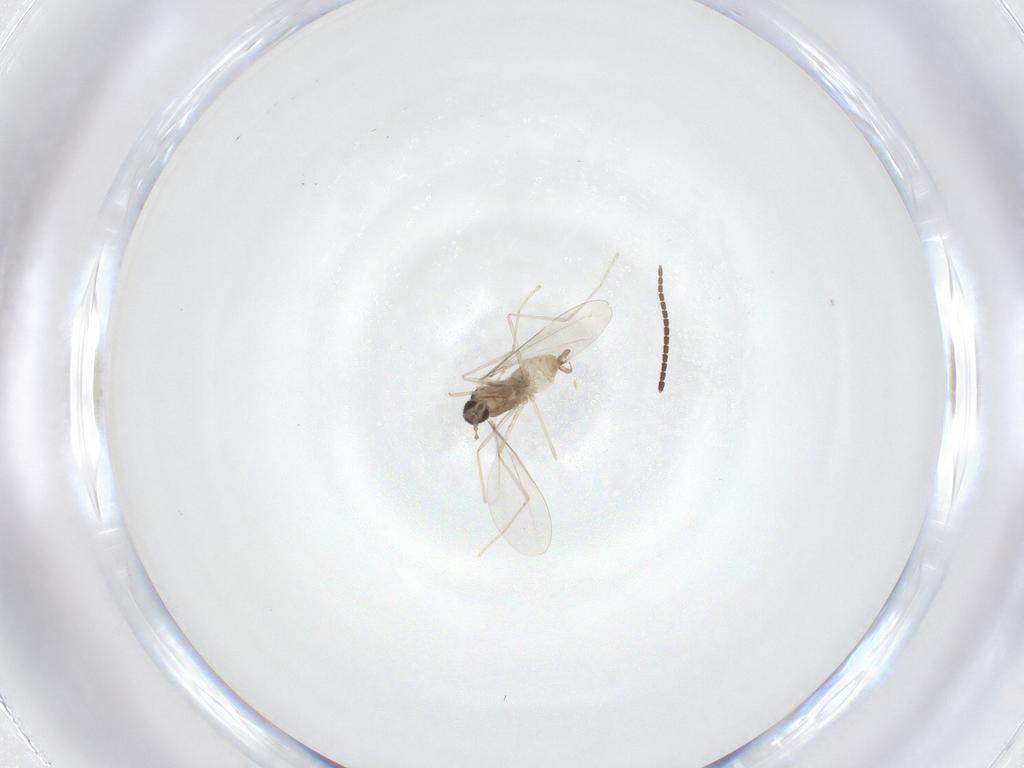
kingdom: Animalia
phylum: Arthropoda
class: Insecta
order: Diptera
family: Cecidomyiidae
